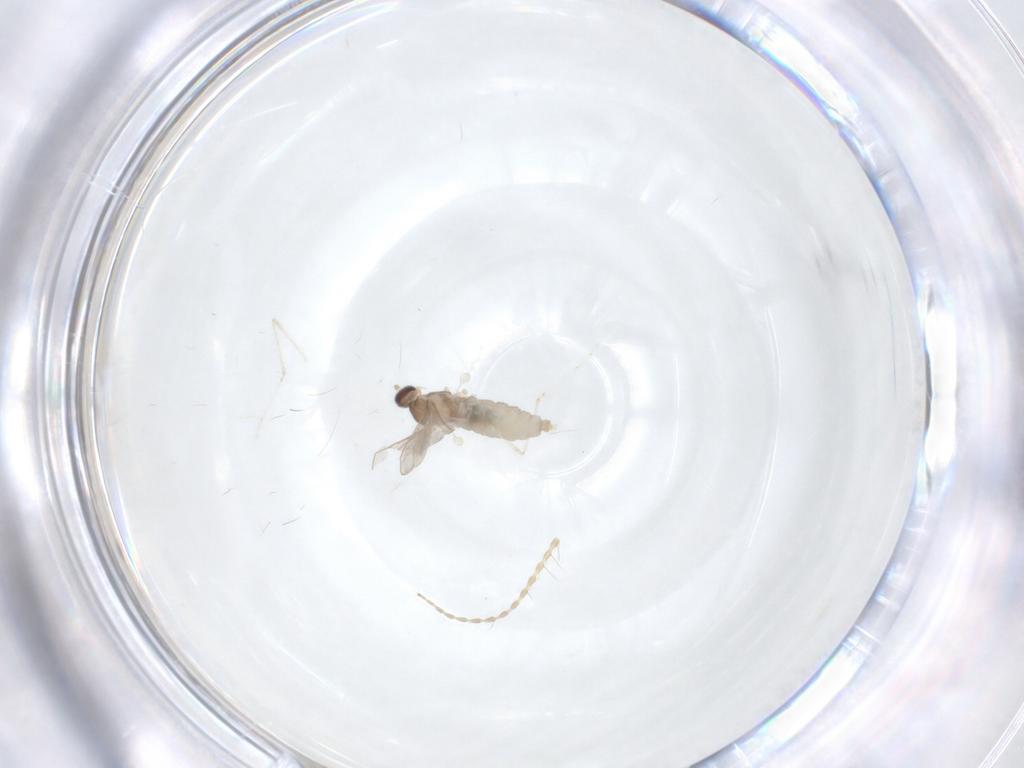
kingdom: Animalia
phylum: Arthropoda
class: Insecta
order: Diptera
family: Cecidomyiidae
